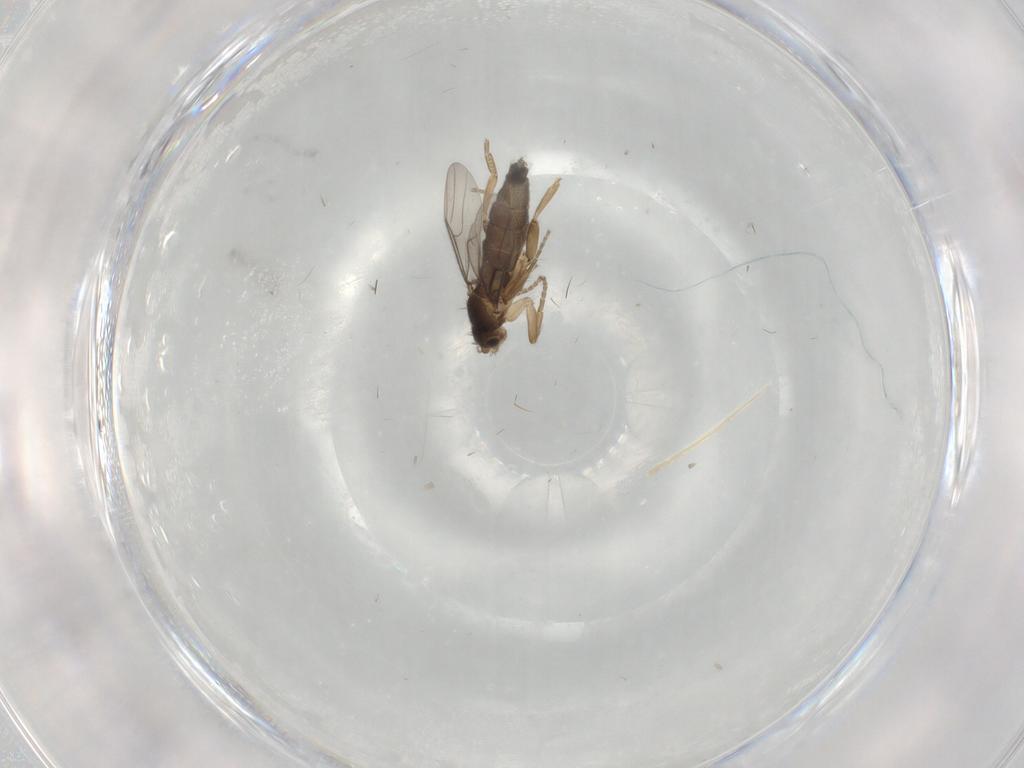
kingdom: Animalia
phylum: Arthropoda
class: Insecta
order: Diptera
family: Phoridae
